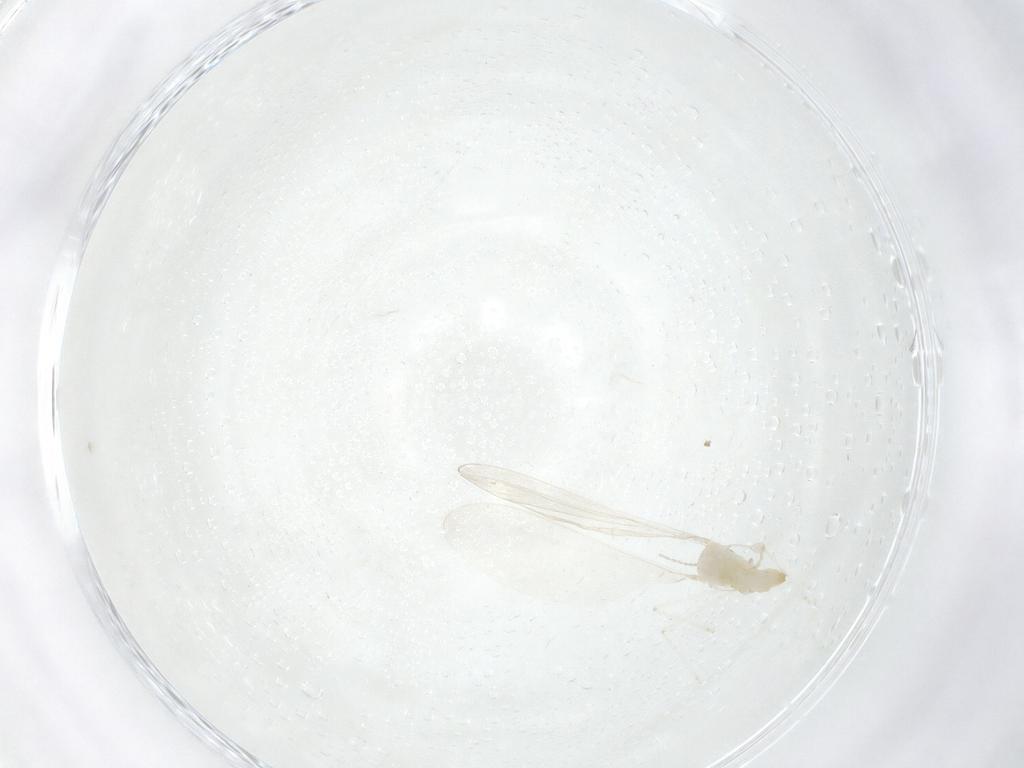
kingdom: Animalia
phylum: Arthropoda
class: Insecta
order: Diptera
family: Cecidomyiidae
